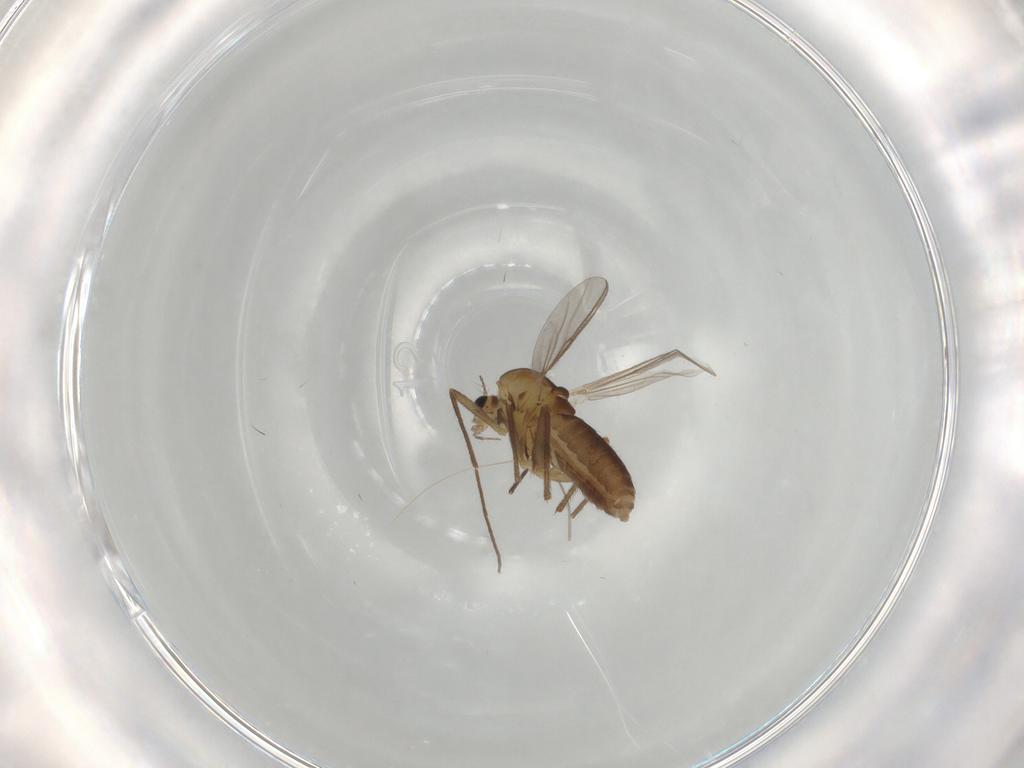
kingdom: Animalia
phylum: Arthropoda
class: Insecta
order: Diptera
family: Chironomidae
